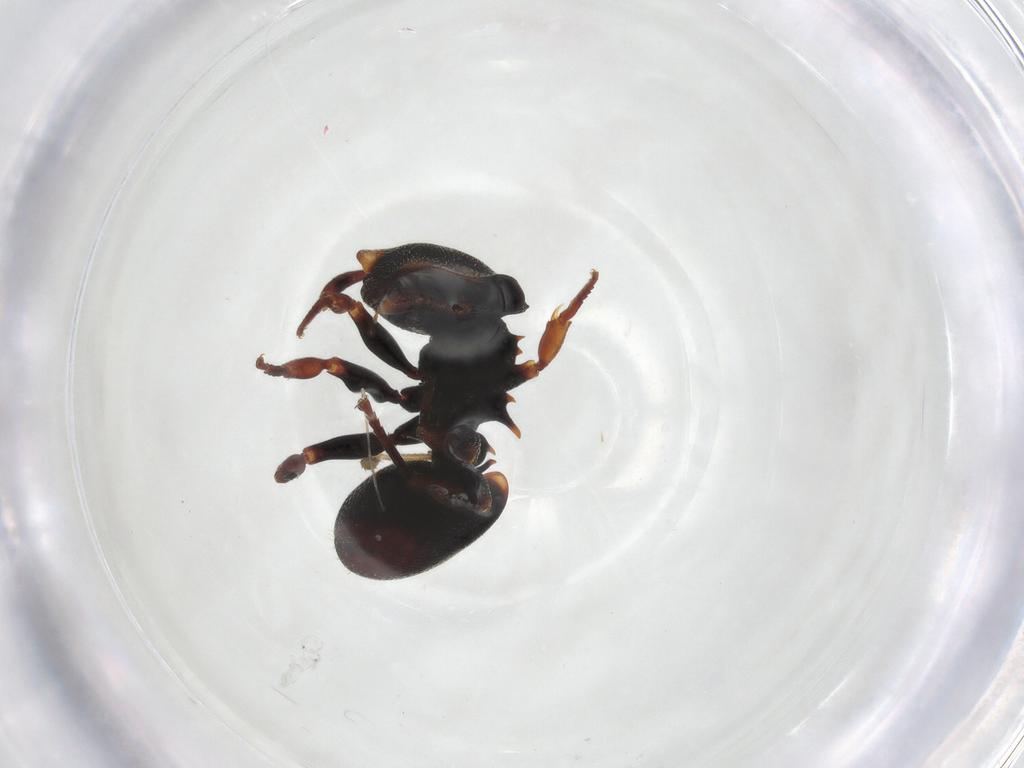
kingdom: Animalia
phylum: Arthropoda
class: Insecta
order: Hymenoptera
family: Formicidae
